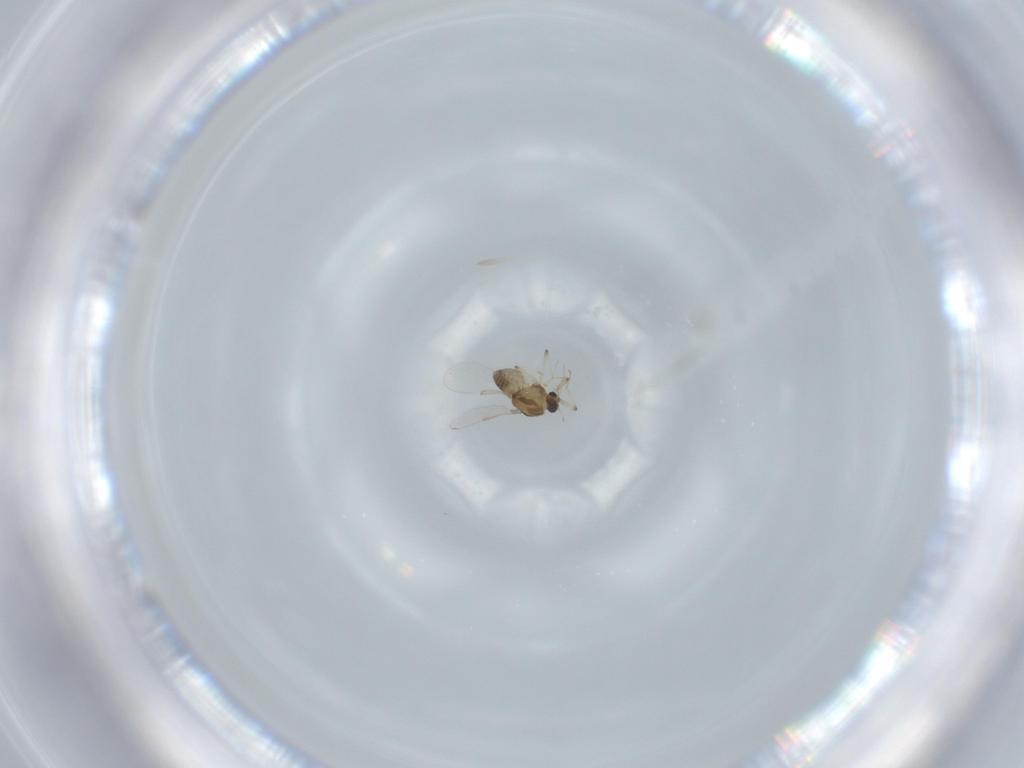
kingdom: Animalia
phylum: Arthropoda
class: Insecta
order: Diptera
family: Chironomidae
